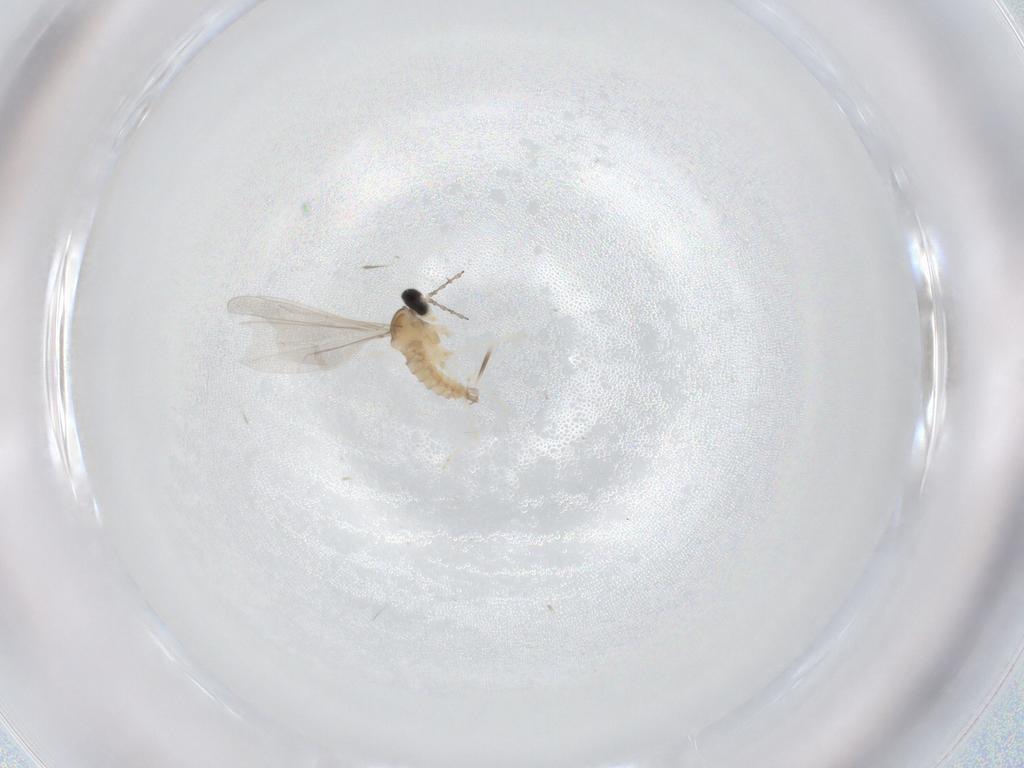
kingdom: Animalia
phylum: Arthropoda
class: Insecta
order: Diptera
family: Cecidomyiidae
